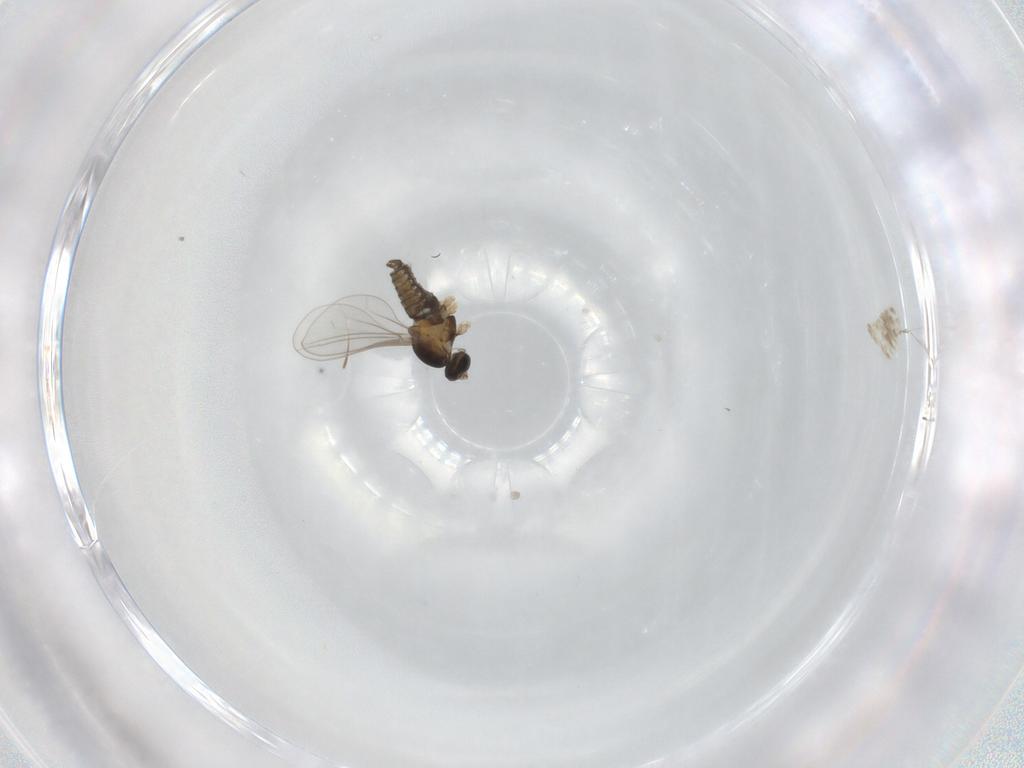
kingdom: Animalia
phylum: Arthropoda
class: Insecta
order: Diptera
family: Cecidomyiidae
